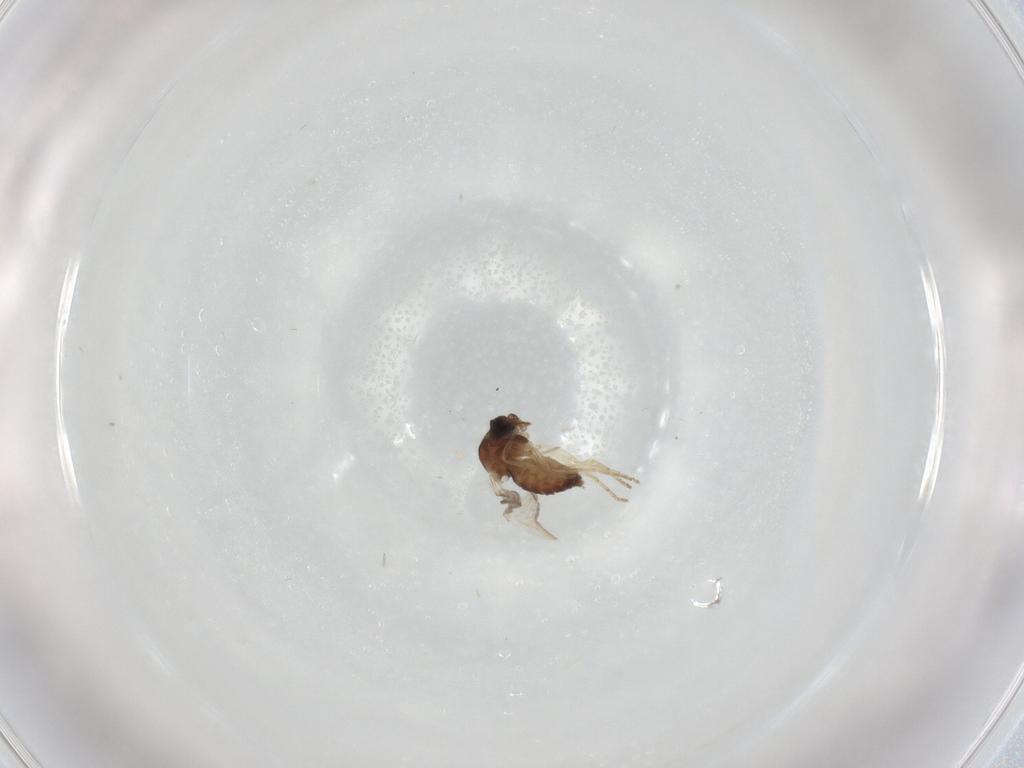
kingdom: Animalia
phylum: Arthropoda
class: Insecta
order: Diptera
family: Ceratopogonidae
